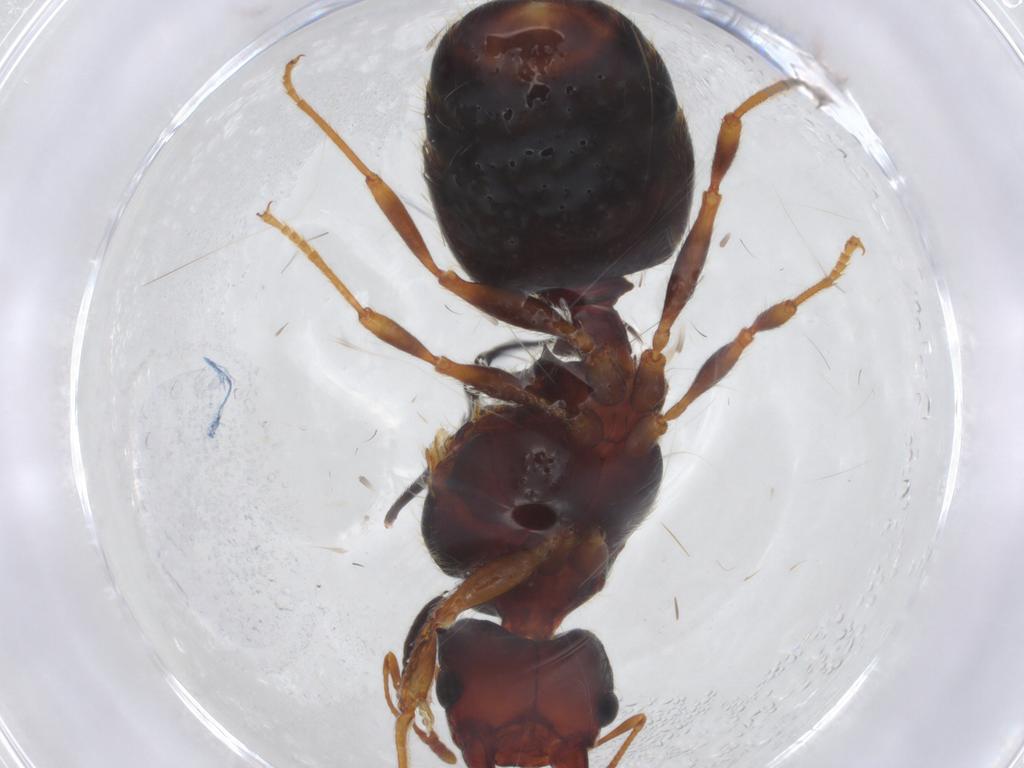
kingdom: Animalia
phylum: Arthropoda
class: Insecta
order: Hymenoptera
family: Formicidae
